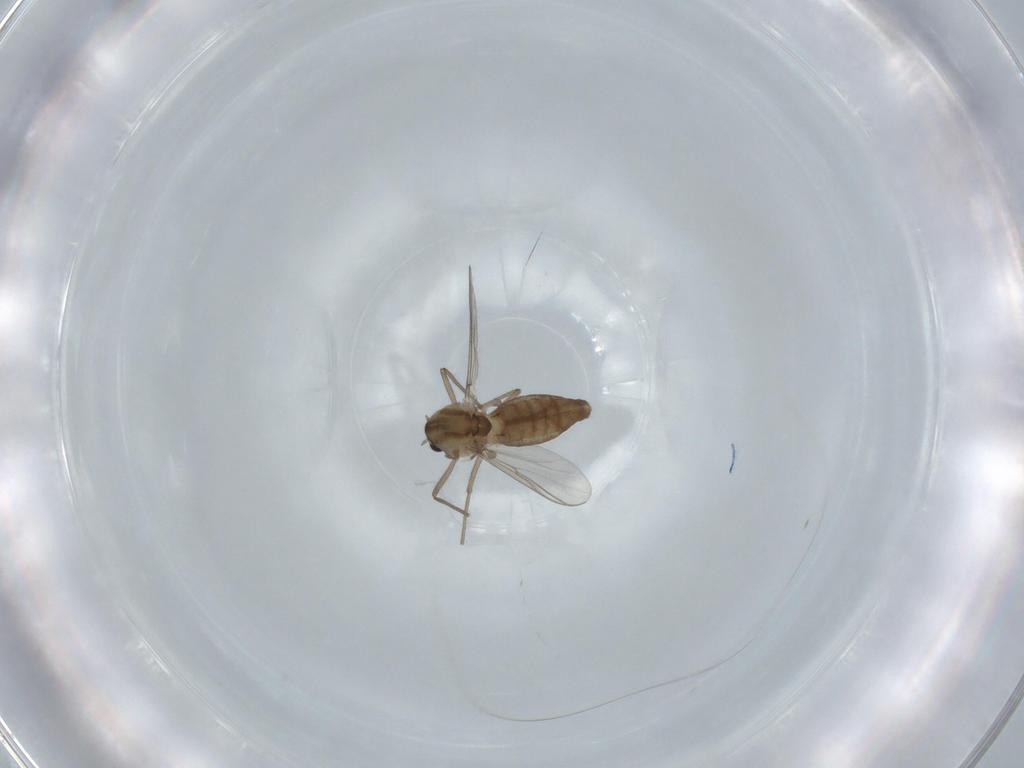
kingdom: Animalia
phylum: Arthropoda
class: Insecta
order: Diptera
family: Chironomidae
